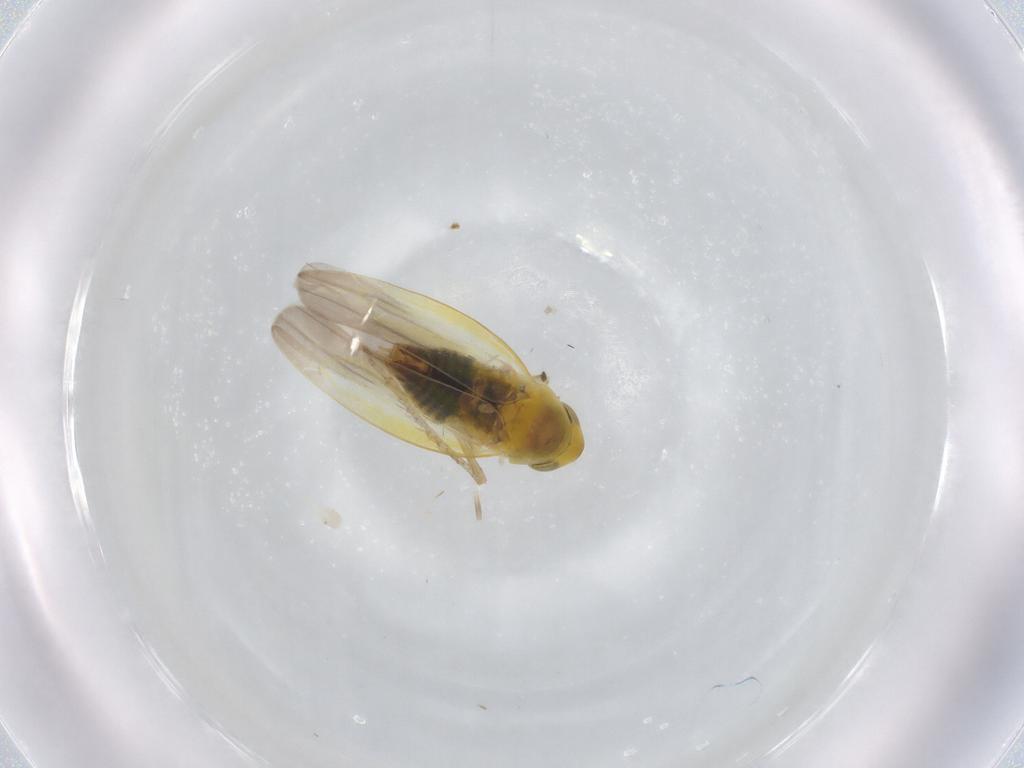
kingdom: Animalia
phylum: Arthropoda
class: Insecta
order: Hemiptera
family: Cicadellidae
